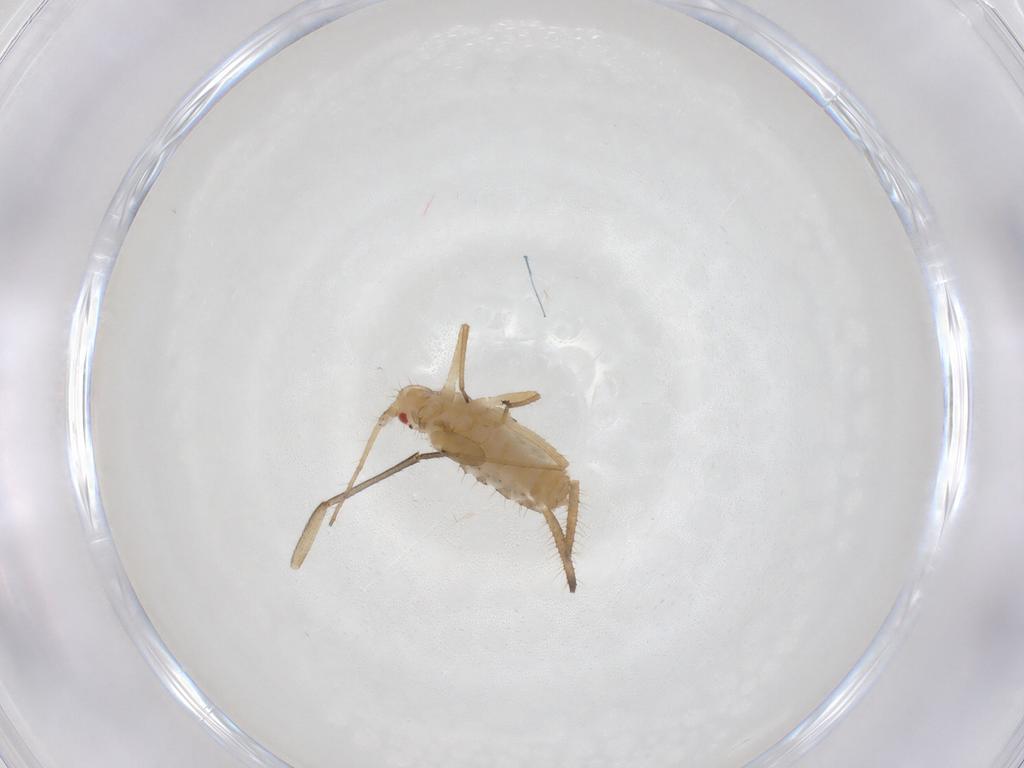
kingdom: Animalia
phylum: Arthropoda
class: Insecta
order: Hemiptera
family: Aphididae
